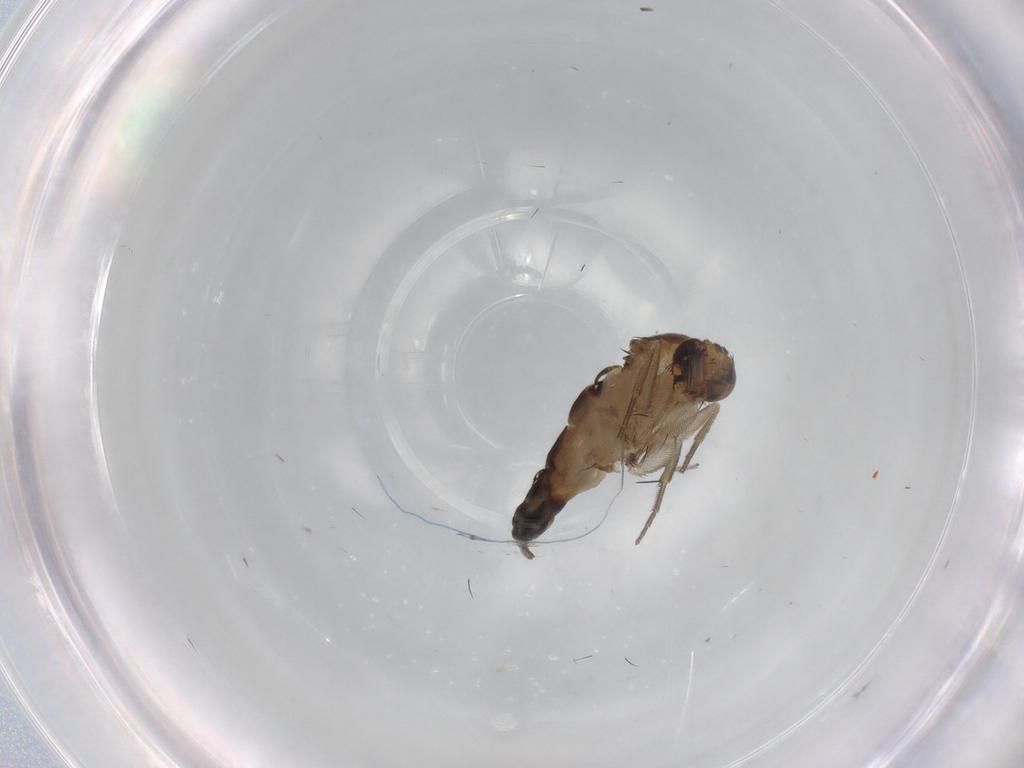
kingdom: Animalia
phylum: Arthropoda
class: Insecta
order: Diptera
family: Phoridae
